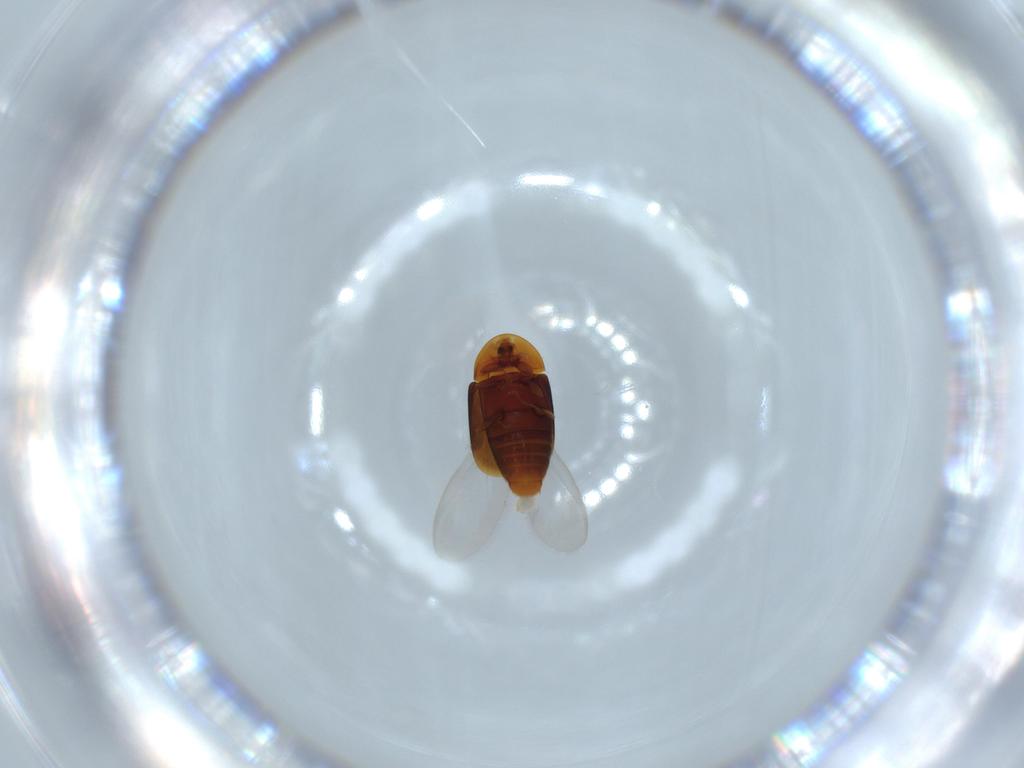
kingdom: Animalia
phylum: Arthropoda
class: Insecta
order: Coleoptera
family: Corylophidae
